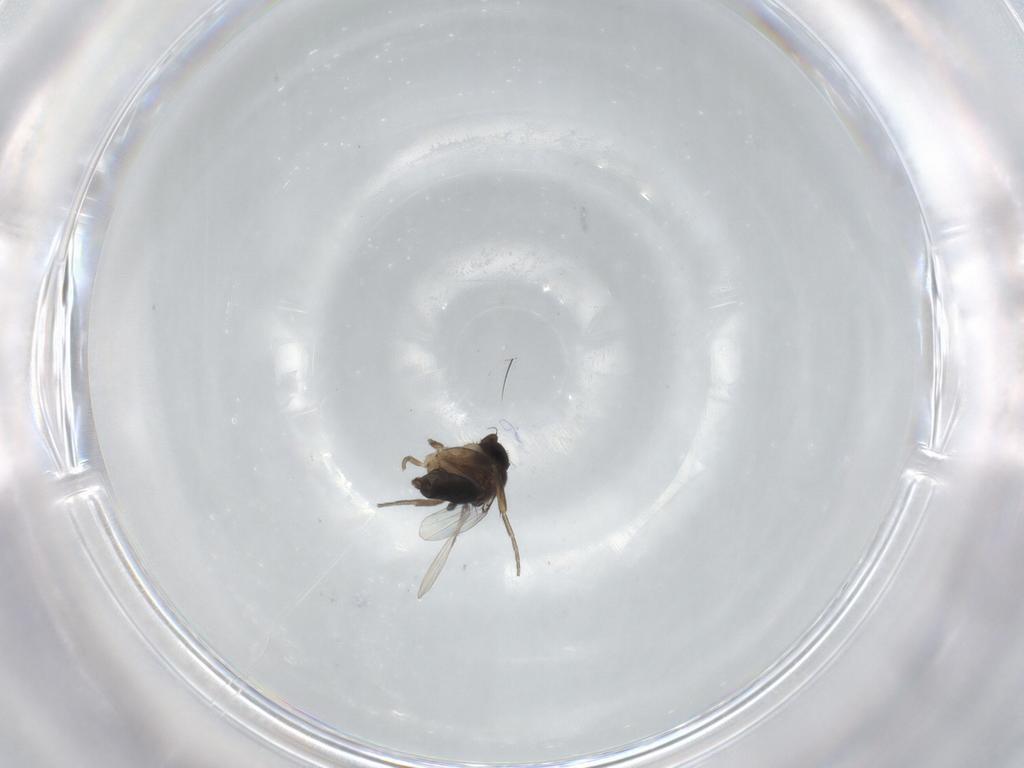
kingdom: Animalia
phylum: Arthropoda
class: Insecta
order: Diptera
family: Phoridae
